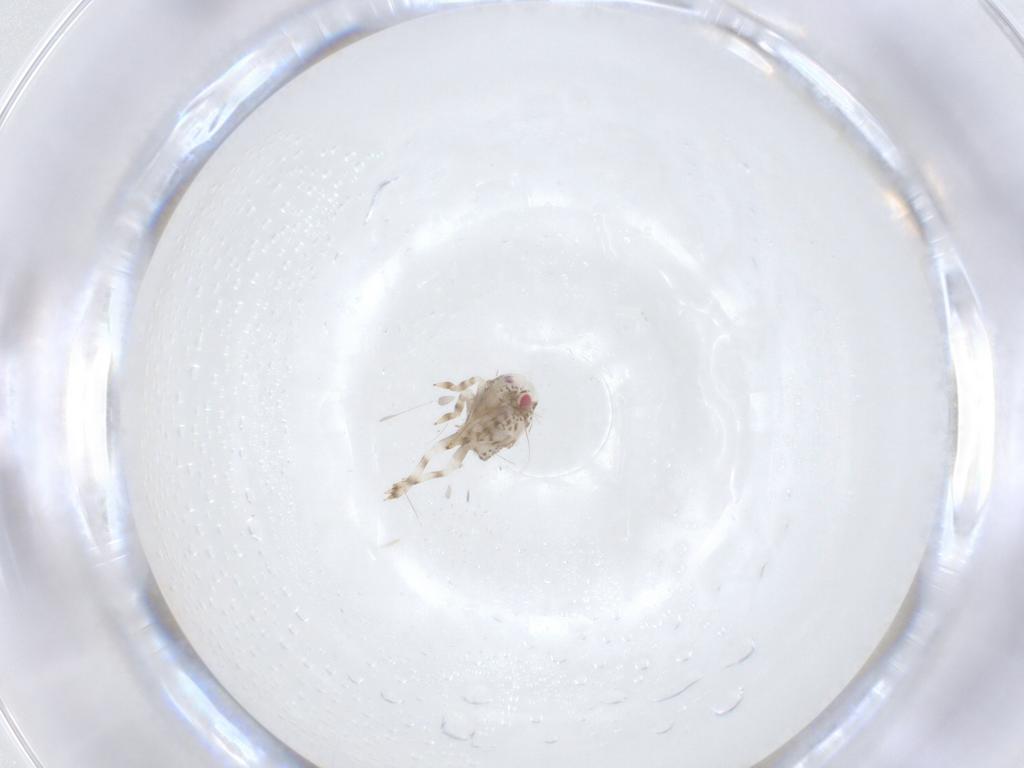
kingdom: Animalia
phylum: Arthropoda
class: Insecta
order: Hemiptera
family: Acanaloniidae
